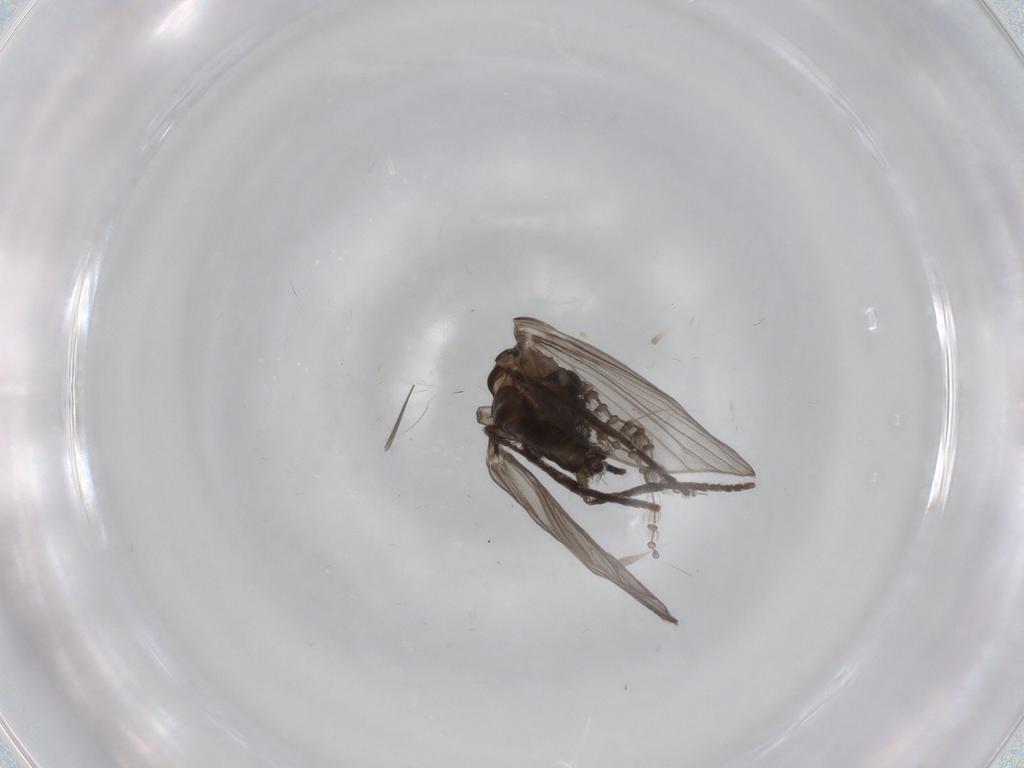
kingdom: Animalia
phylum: Arthropoda
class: Insecta
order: Diptera
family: Psychodidae
